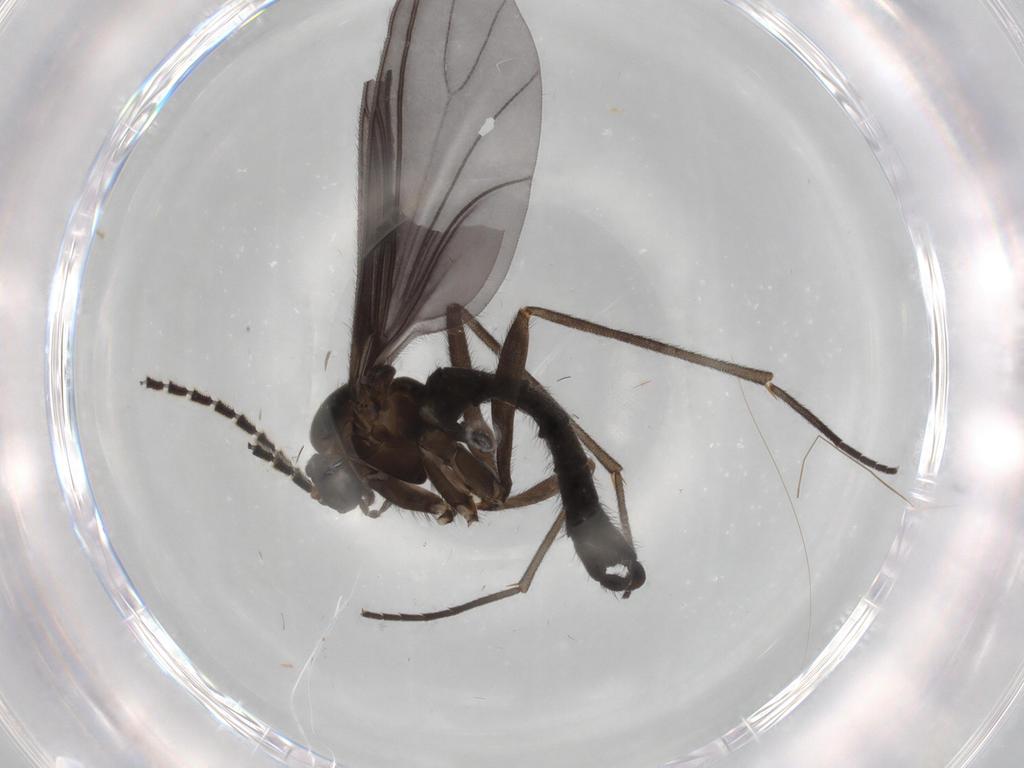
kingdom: Animalia
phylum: Arthropoda
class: Insecta
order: Diptera
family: Sciaridae
